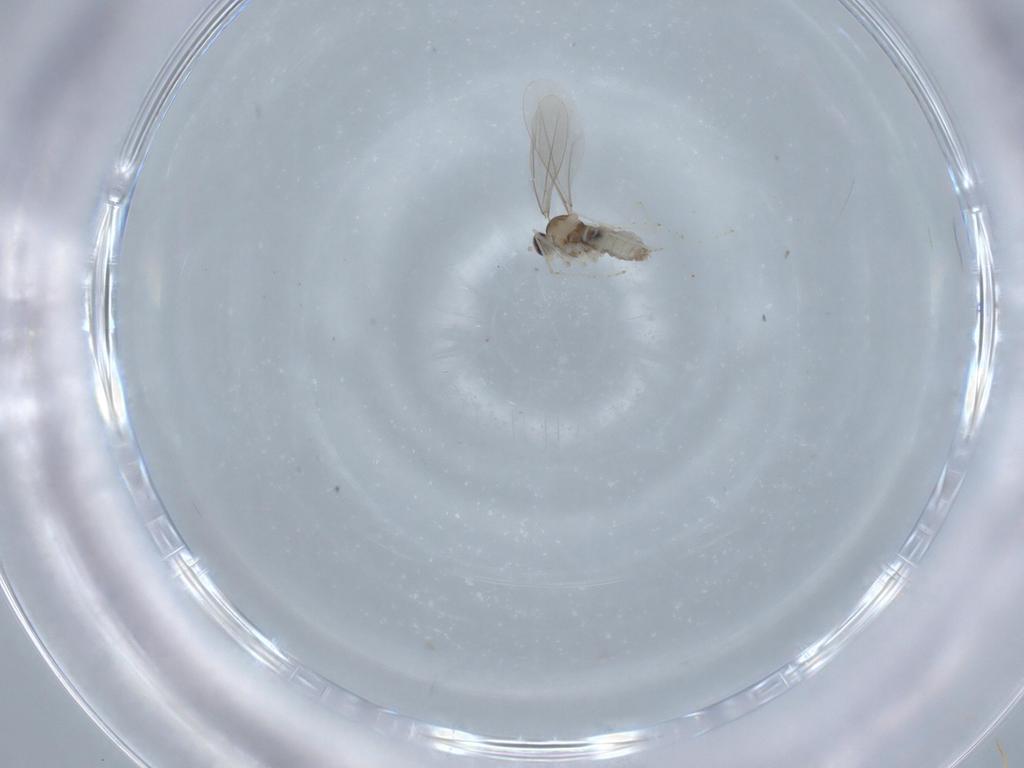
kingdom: Animalia
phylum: Arthropoda
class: Insecta
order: Diptera
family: Cecidomyiidae
